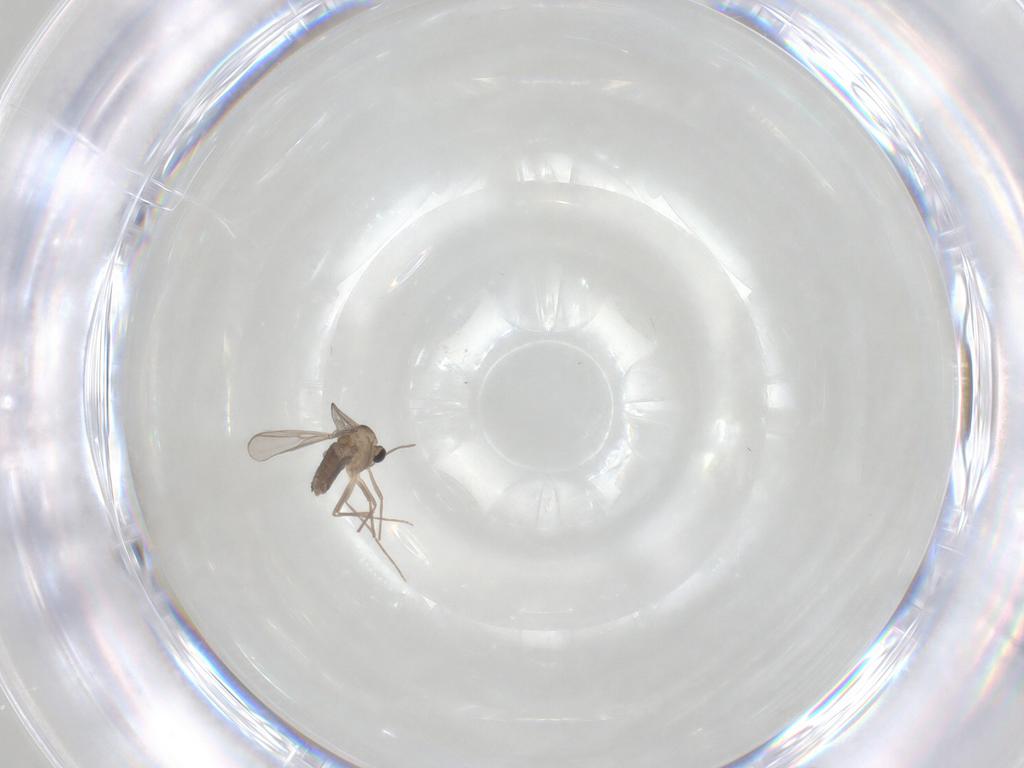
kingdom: Animalia
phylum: Arthropoda
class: Insecta
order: Diptera
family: Chironomidae
